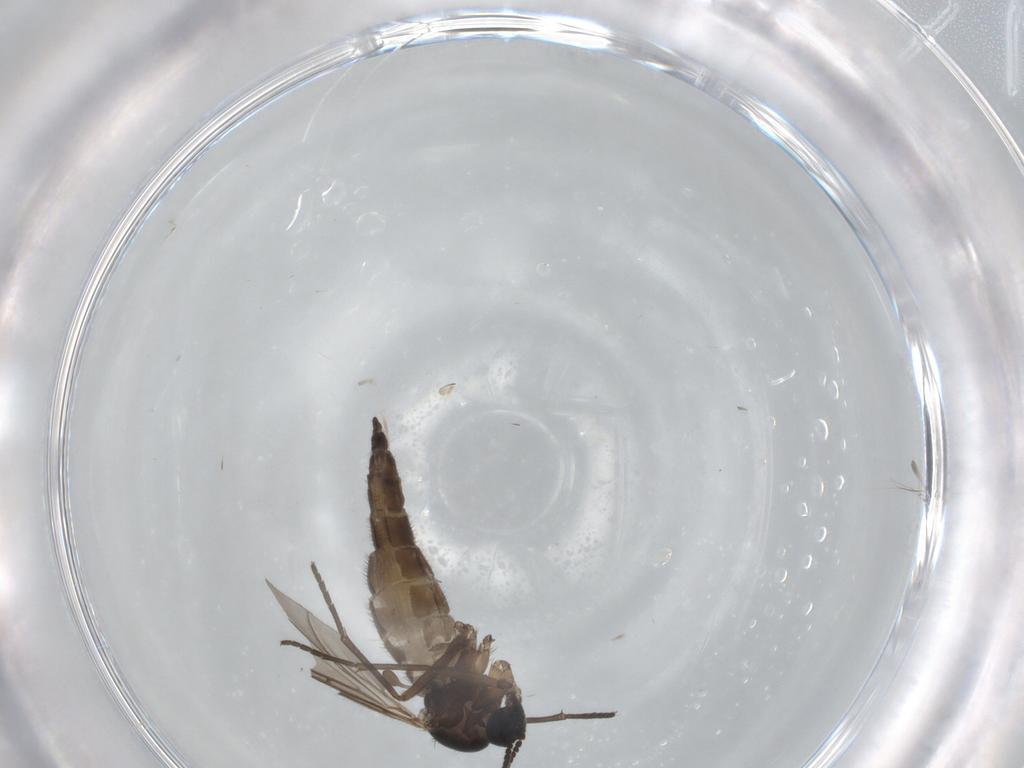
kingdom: Animalia
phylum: Arthropoda
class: Insecta
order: Diptera
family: Sciaridae
